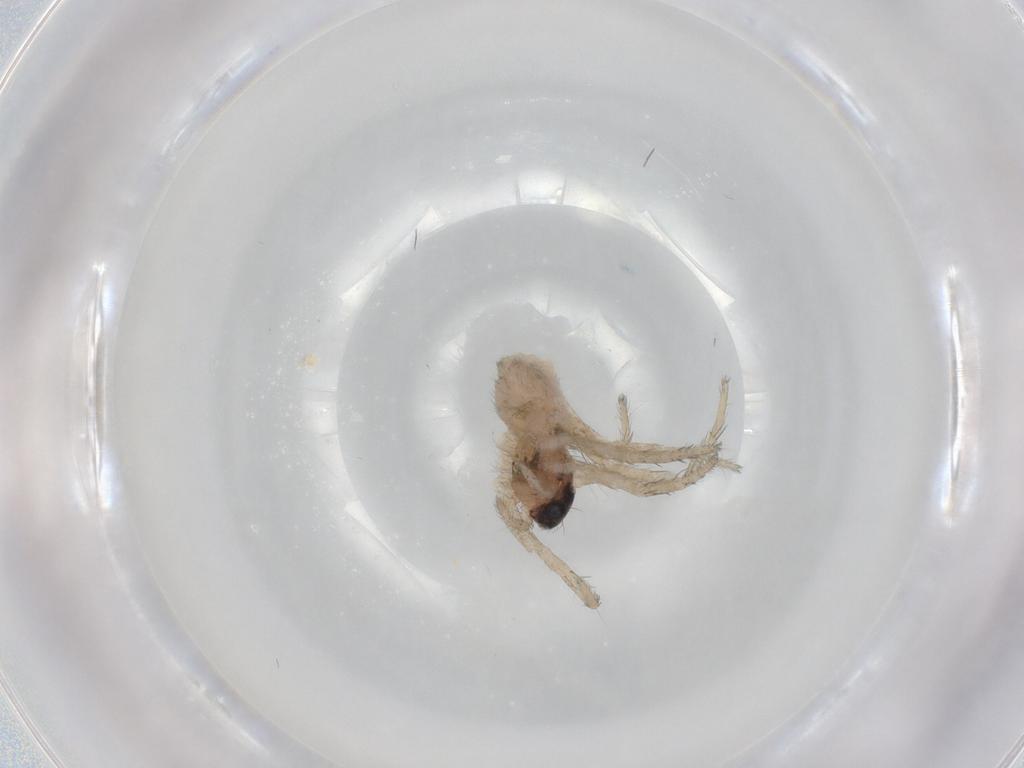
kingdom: Animalia
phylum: Arthropoda
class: Arachnida
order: Araneae
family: Lycosidae
